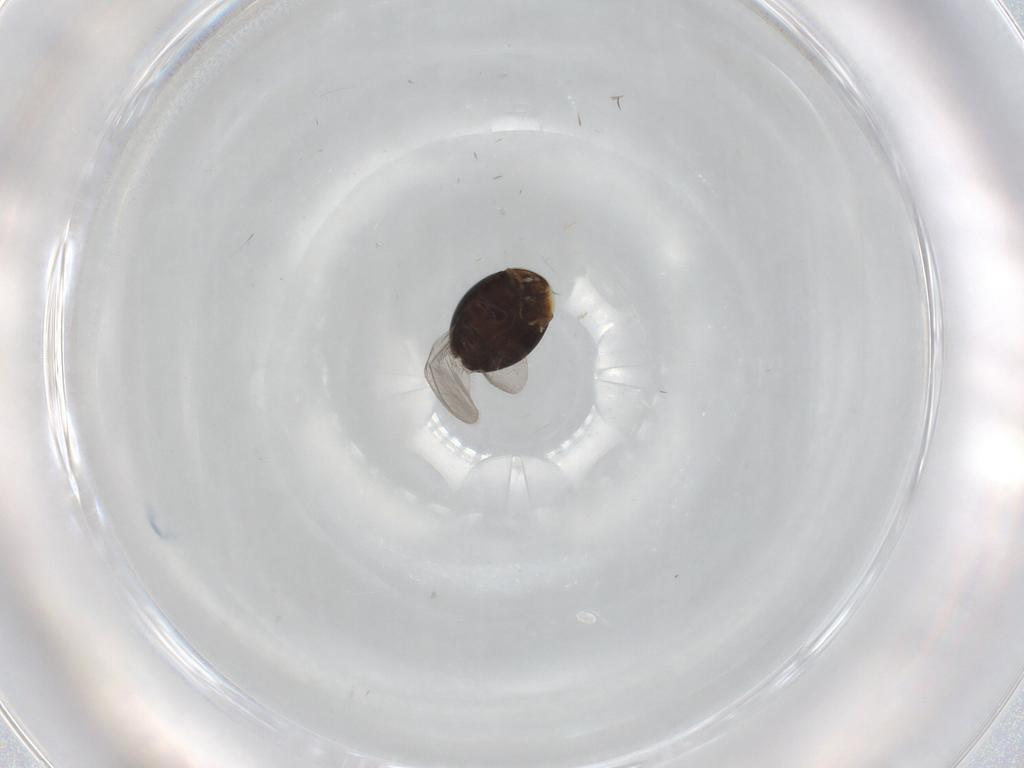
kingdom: Animalia
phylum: Arthropoda
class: Insecta
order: Coleoptera
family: Corylophidae
